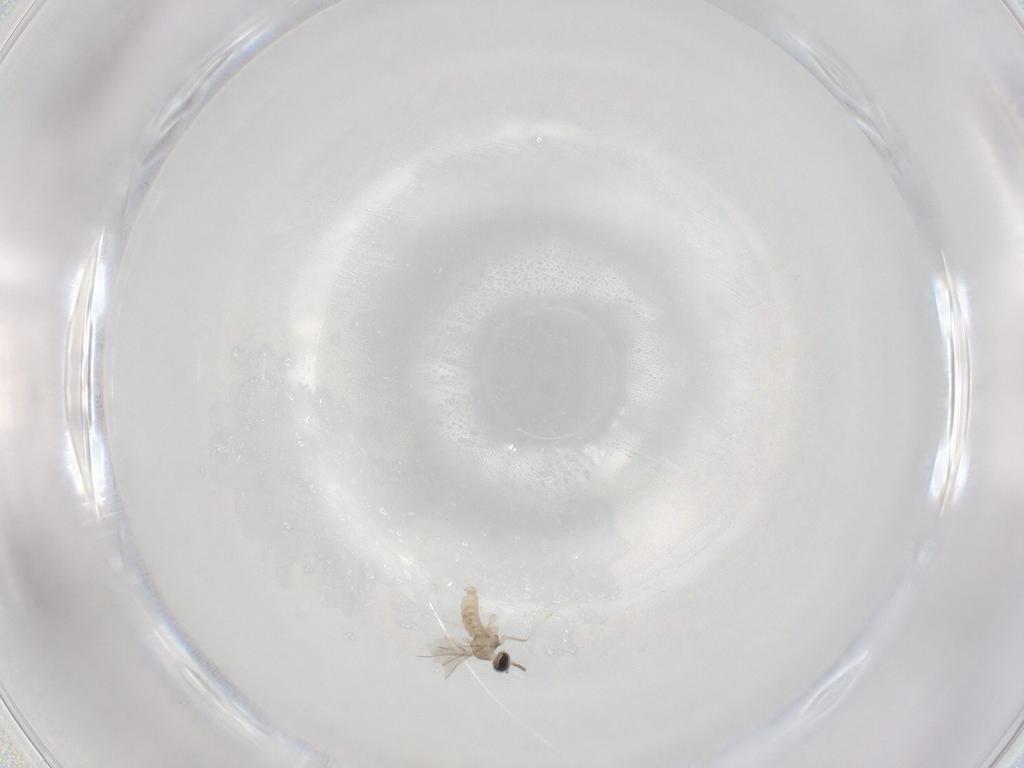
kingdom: Animalia
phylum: Arthropoda
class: Insecta
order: Diptera
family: Cecidomyiidae
